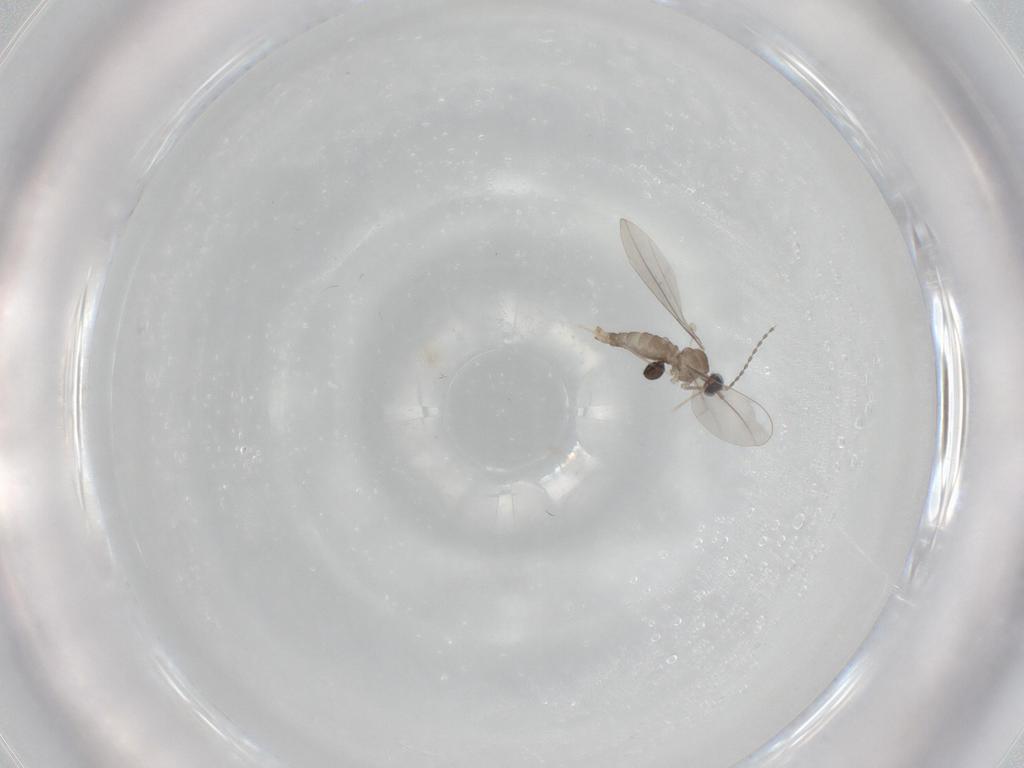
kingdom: Animalia
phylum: Arthropoda
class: Insecta
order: Diptera
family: Cecidomyiidae
